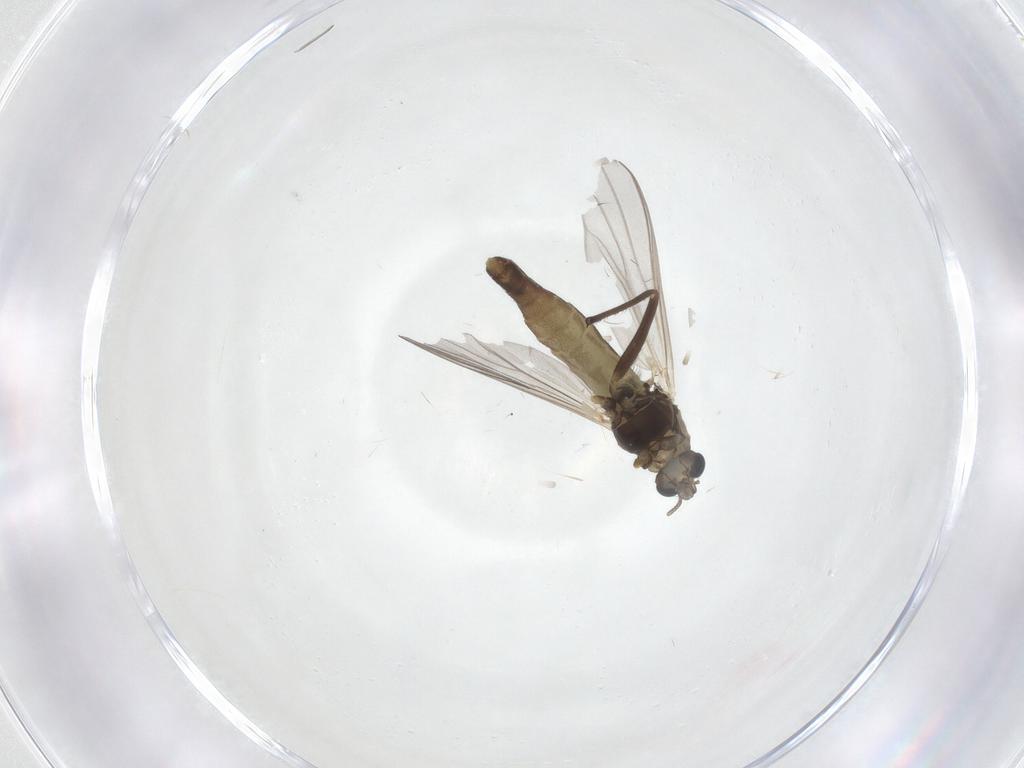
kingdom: Animalia
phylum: Arthropoda
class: Insecta
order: Diptera
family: Chironomidae
